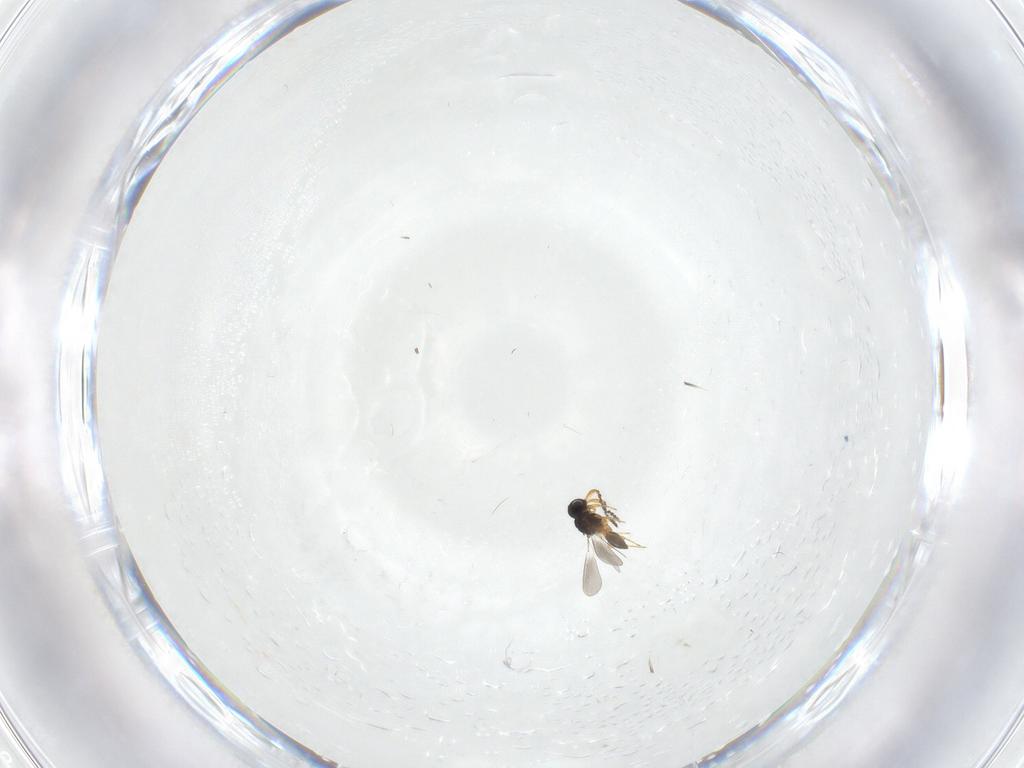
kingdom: Animalia
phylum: Arthropoda
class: Insecta
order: Hymenoptera
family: Platygastridae
